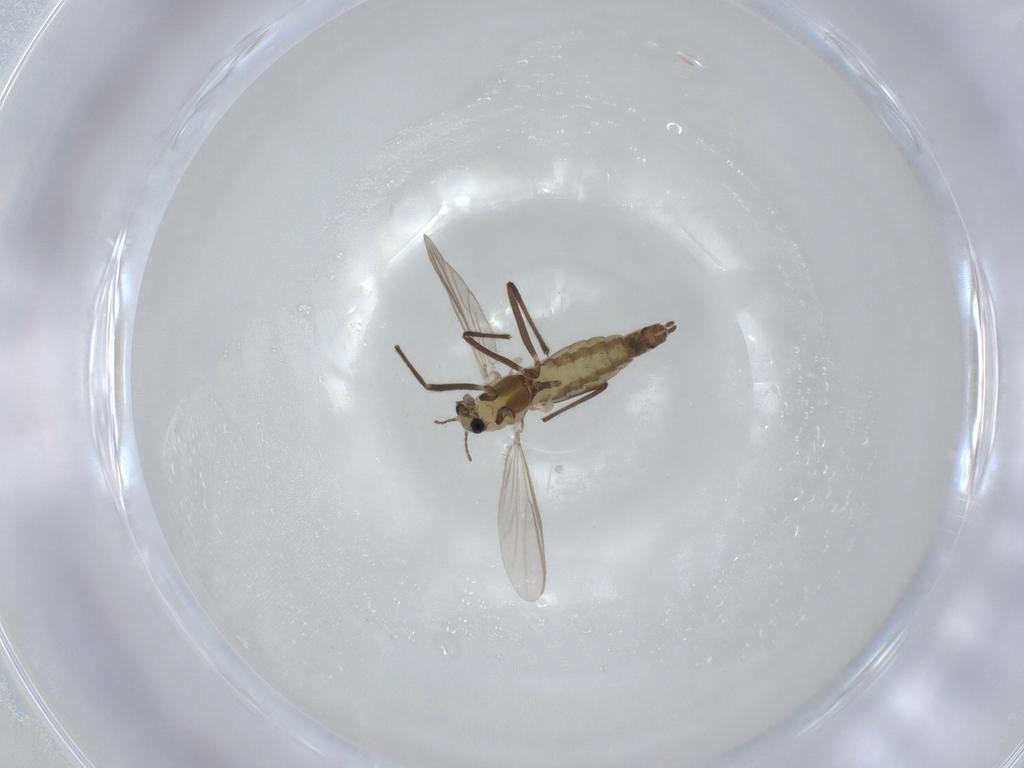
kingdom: Animalia
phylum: Arthropoda
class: Insecta
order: Diptera
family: Chironomidae
